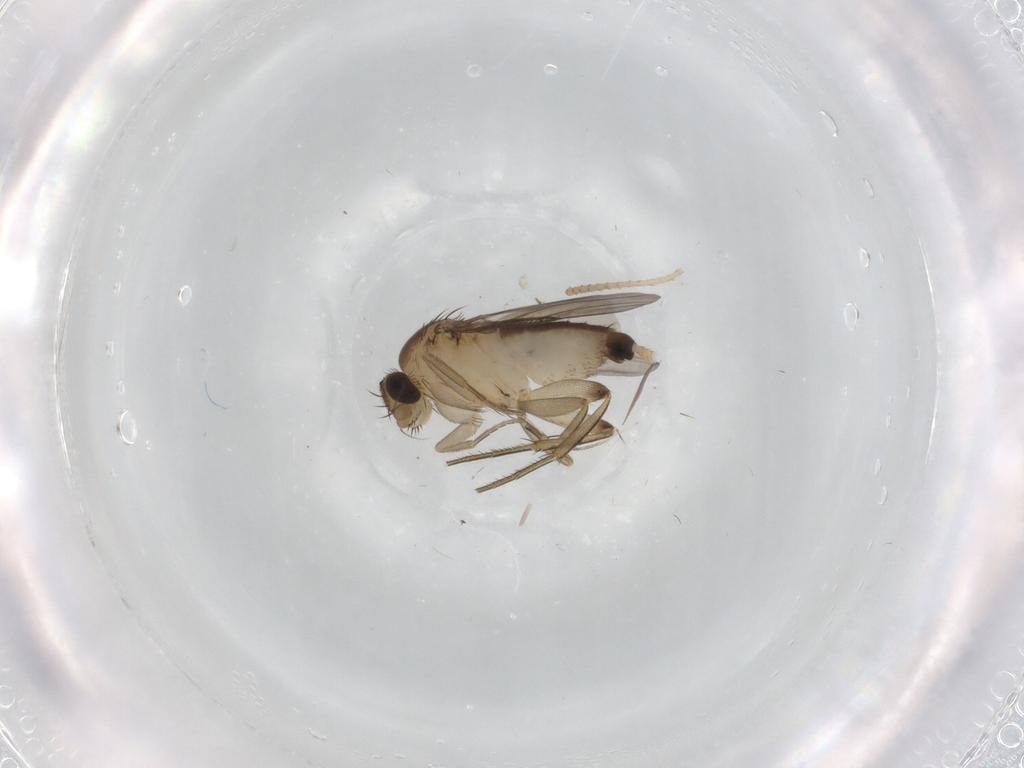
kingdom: Animalia
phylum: Arthropoda
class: Insecta
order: Diptera
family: Phoridae
